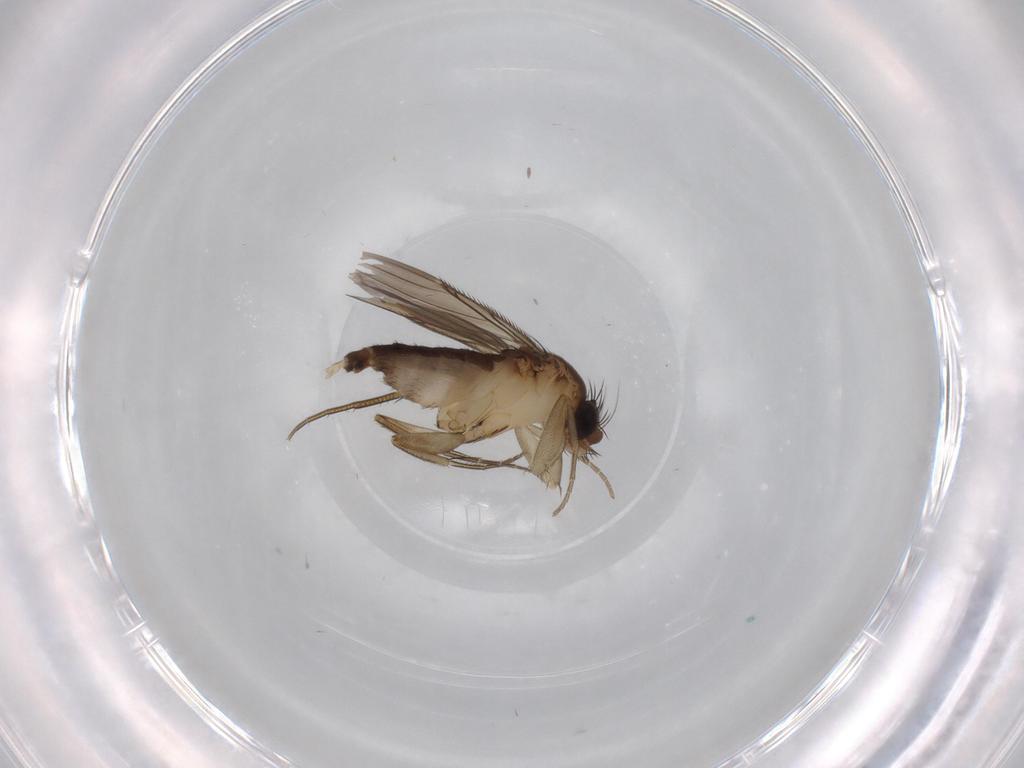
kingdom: Animalia
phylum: Arthropoda
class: Insecta
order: Diptera
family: Phoridae
